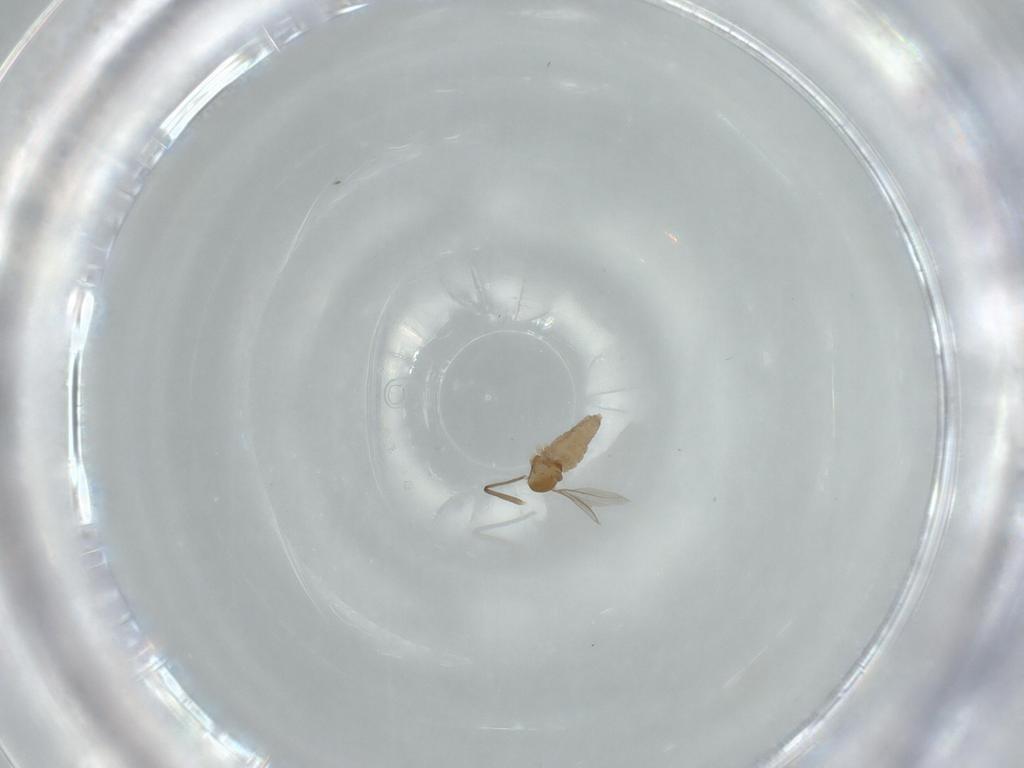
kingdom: Animalia
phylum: Arthropoda
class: Insecta
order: Diptera
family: Cecidomyiidae
